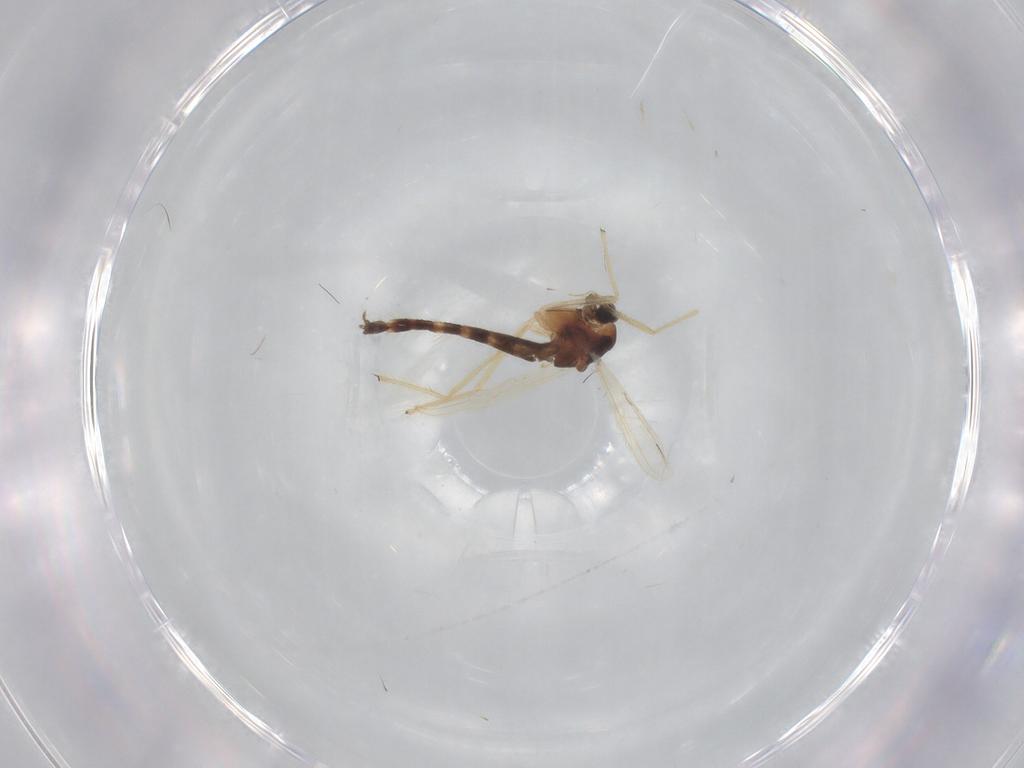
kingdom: Animalia
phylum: Arthropoda
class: Insecta
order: Diptera
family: Chironomidae
